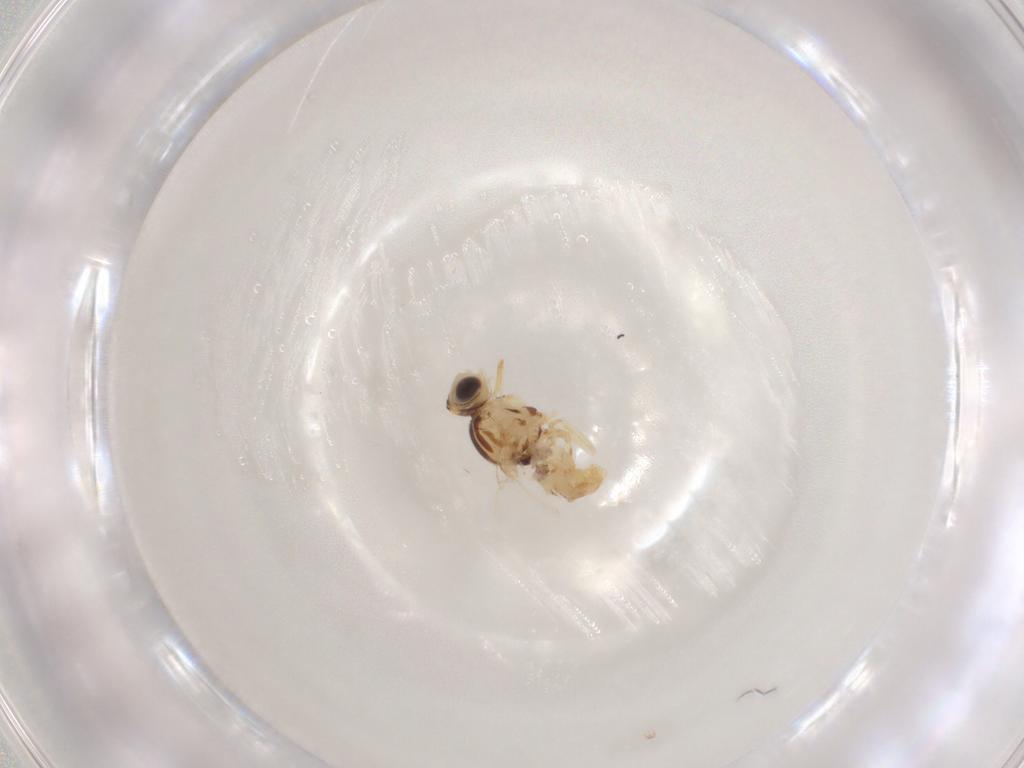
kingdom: Animalia
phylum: Arthropoda
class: Insecta
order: Diptera
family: Chloropidae
